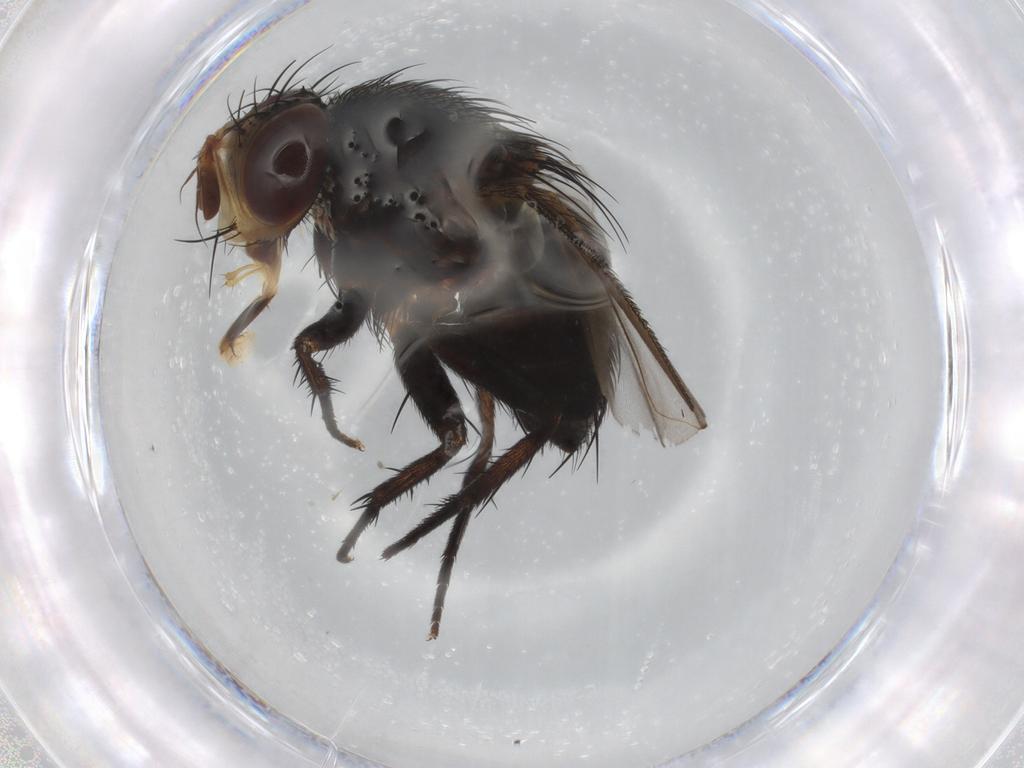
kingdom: Animalia
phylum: Arthropoda
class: Insecta
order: Diptera
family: Tachinidae
